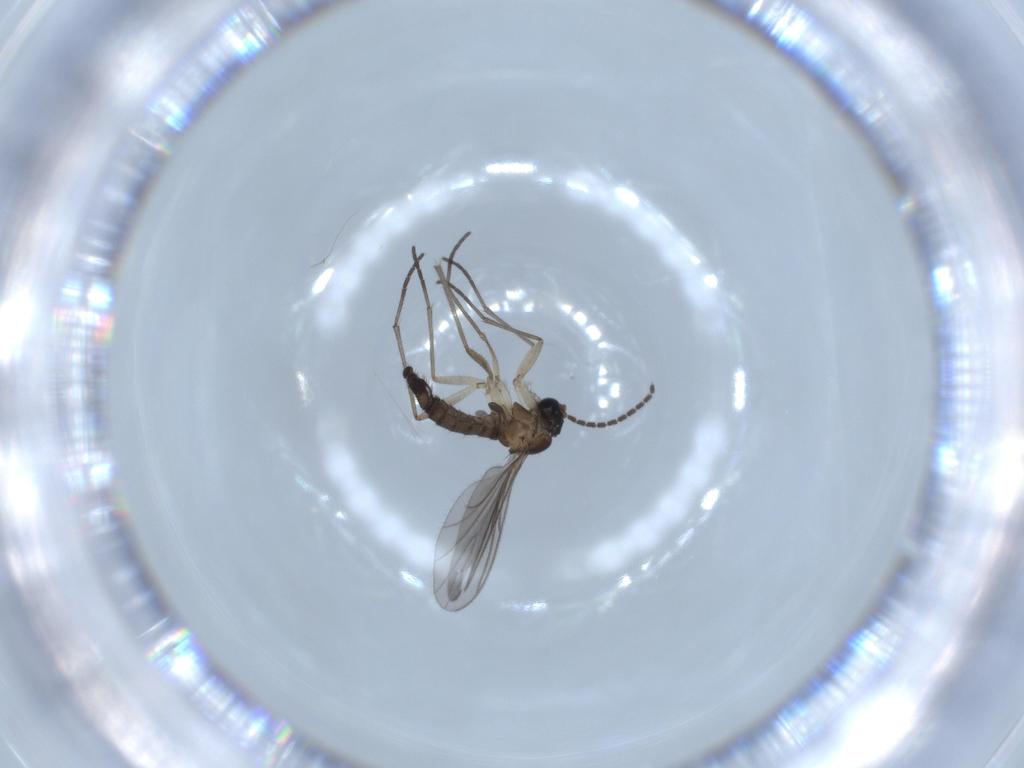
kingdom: Animalia
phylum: Arthropoda
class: Insecta
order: Diptera
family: Sciaridae
